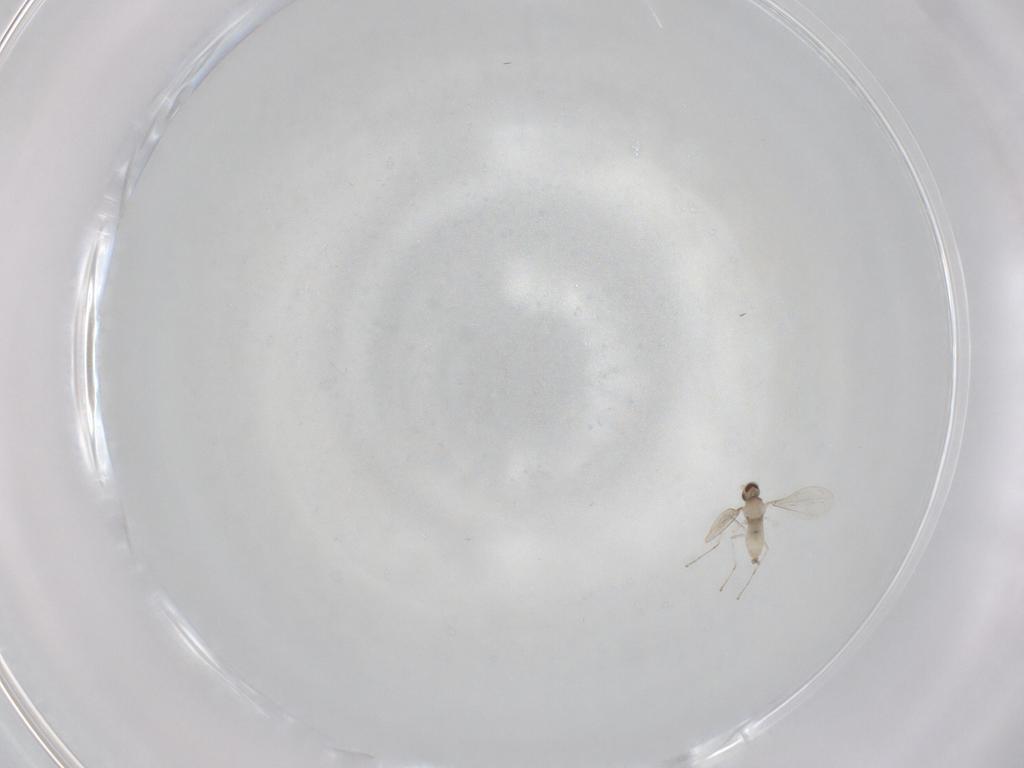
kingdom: Animalia
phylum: Arthropoda
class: Insecta
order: Diptera
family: Cecidomyiidae
